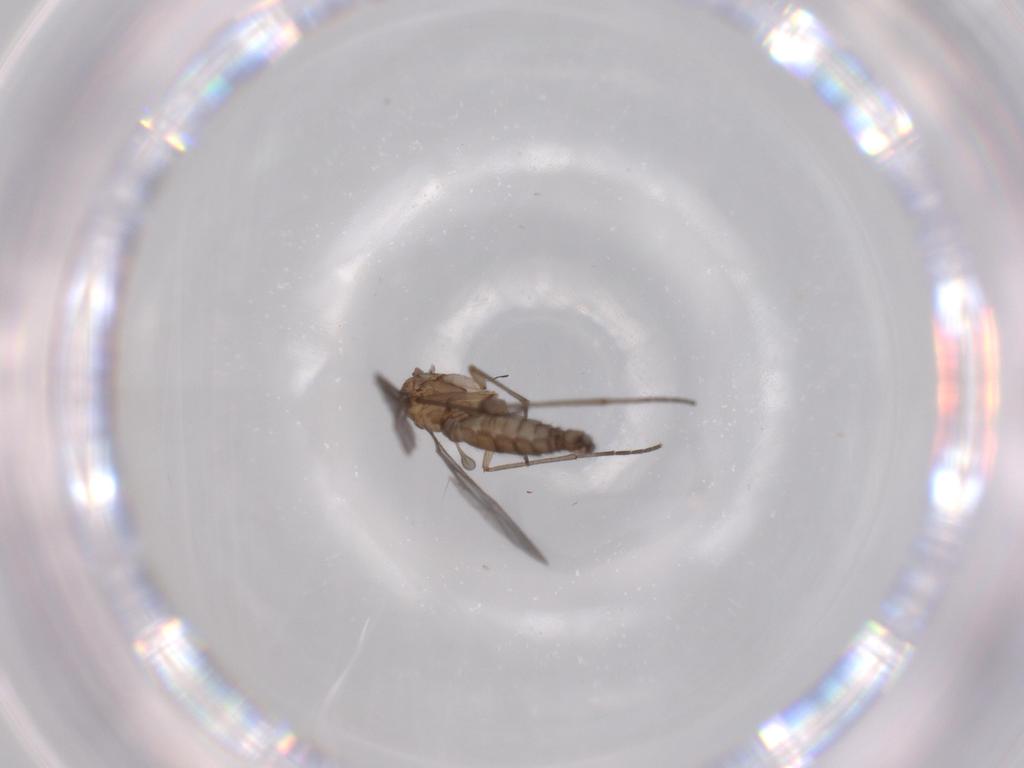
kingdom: Animalia
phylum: Arthropoda
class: Insecta
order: Diptera
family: Sciaridae
